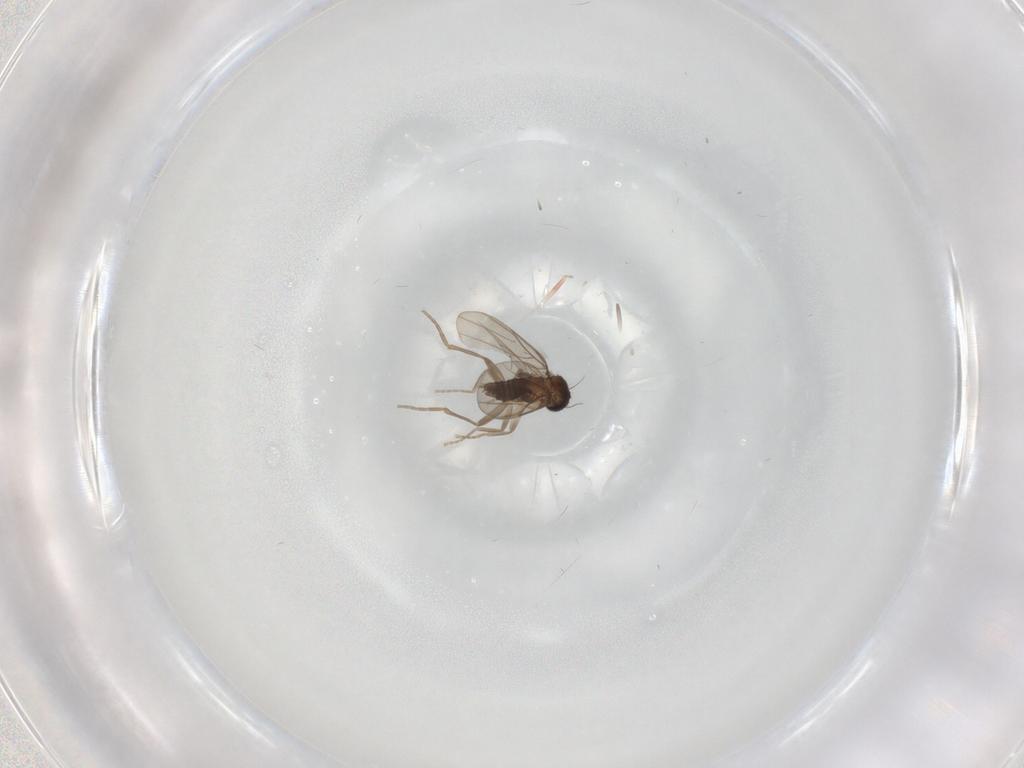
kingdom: Animalia
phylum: Arthropoda
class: Insecta
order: Diptera
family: Phoridae
